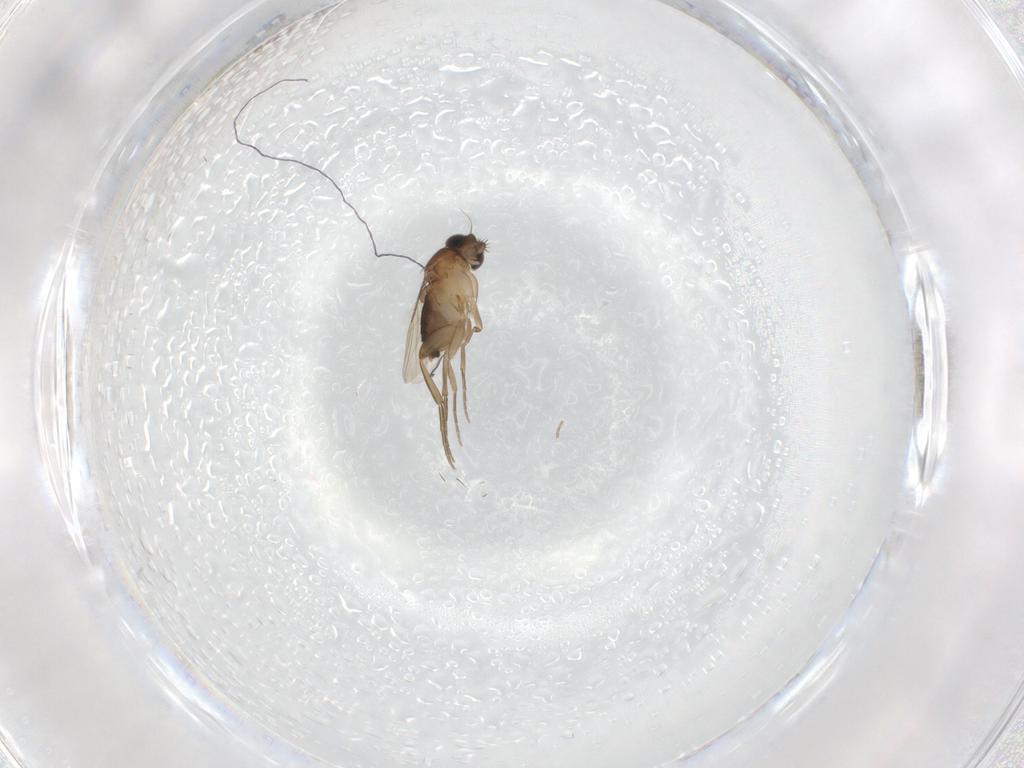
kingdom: Animalia
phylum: Arthropoda
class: Insecta
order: Diptera
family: Phoridae
